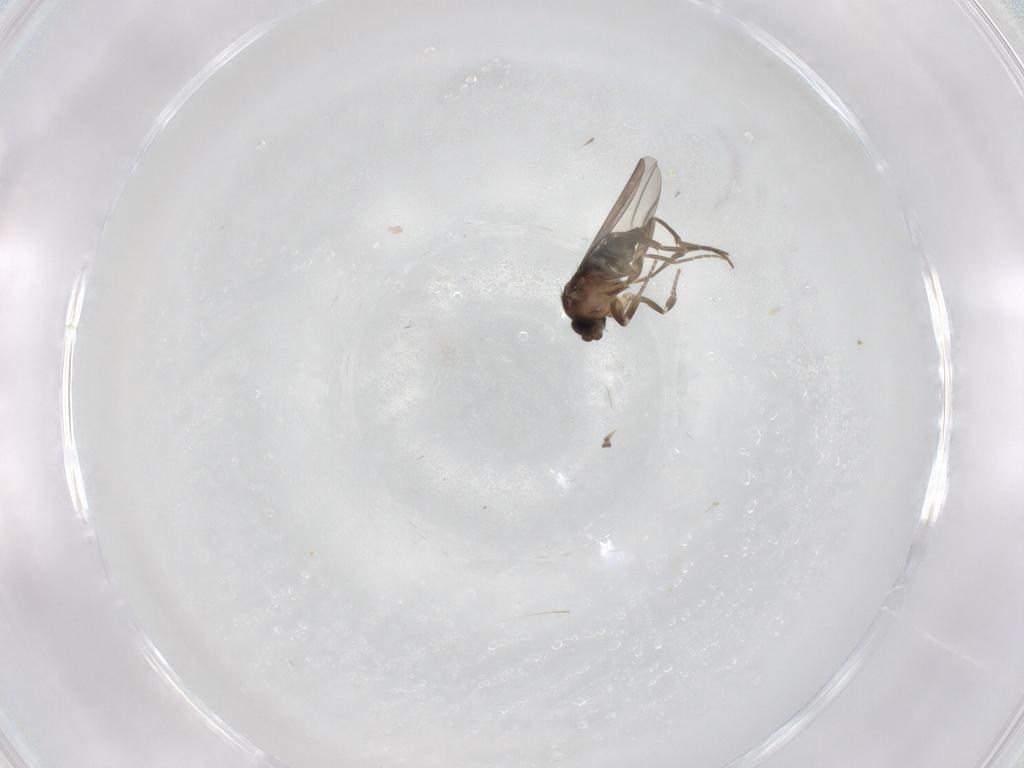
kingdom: Animalia
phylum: Arthropoda
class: Insecta
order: Diptera
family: Cecidomyiidae
